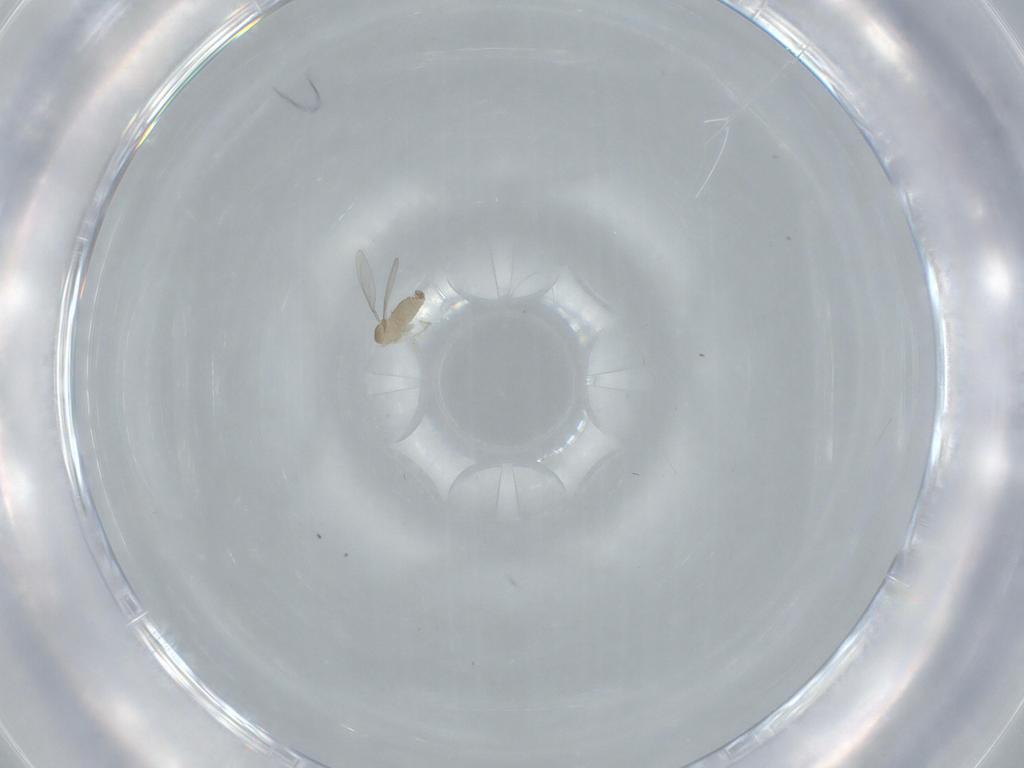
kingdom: Animalia
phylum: Arthropoda
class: Insecta
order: Diptera
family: Cecidomyiidae
